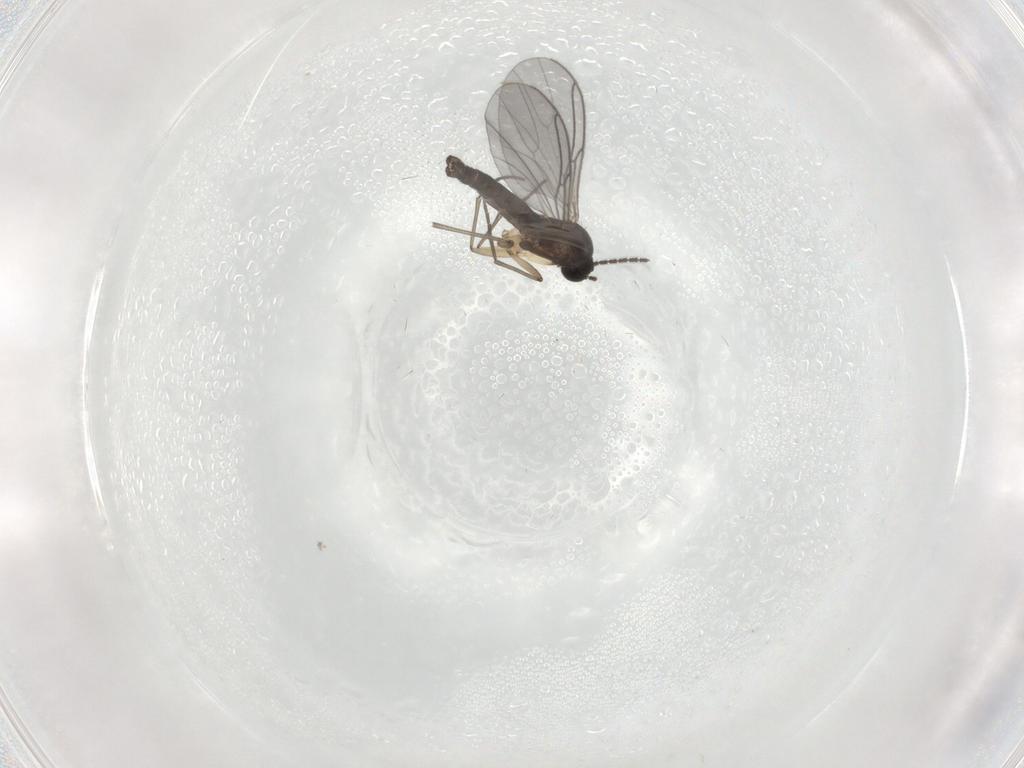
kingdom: Animalia
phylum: Arthropoda
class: Insecta
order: Diptera
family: Sciaridae
